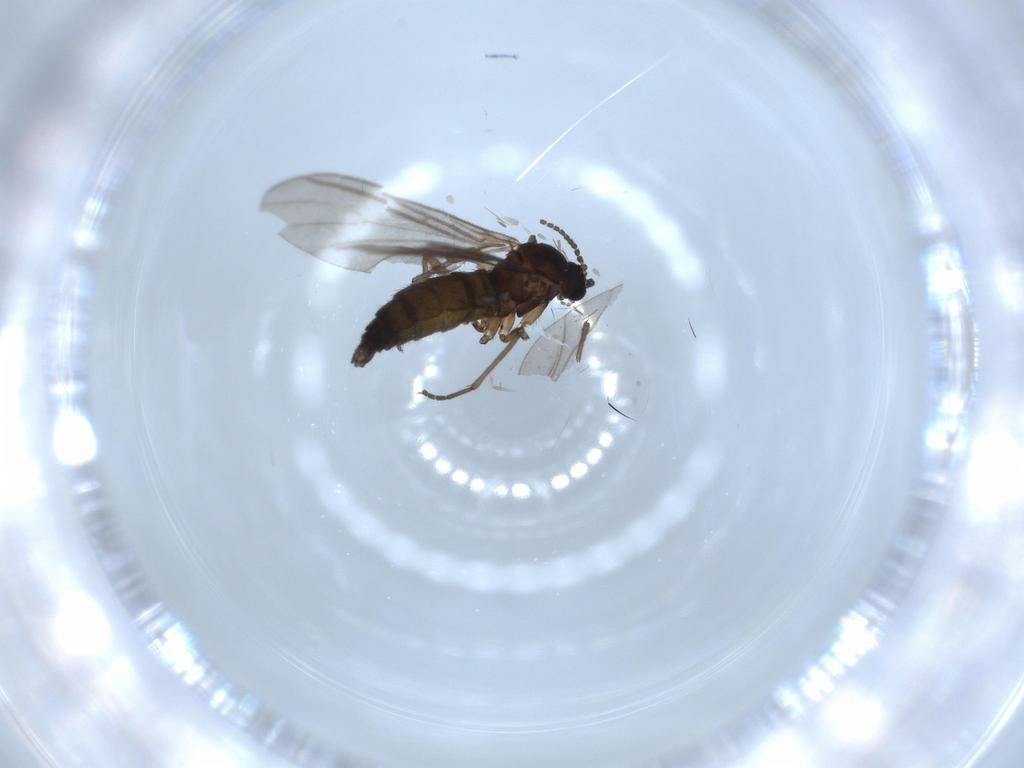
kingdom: Animalia
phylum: Arthropoda
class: Insecta
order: Diptera
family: Sciaridae
